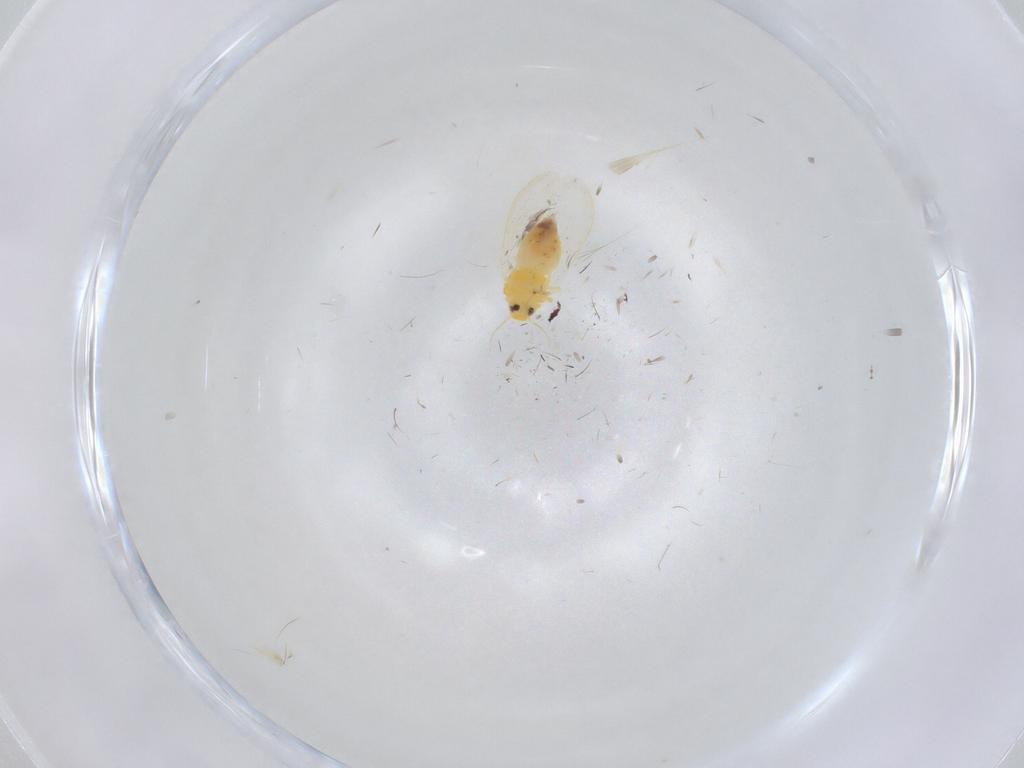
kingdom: Animalia
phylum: Arthropoda
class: Insecta
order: Hemiptera
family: Aleyrodidae
